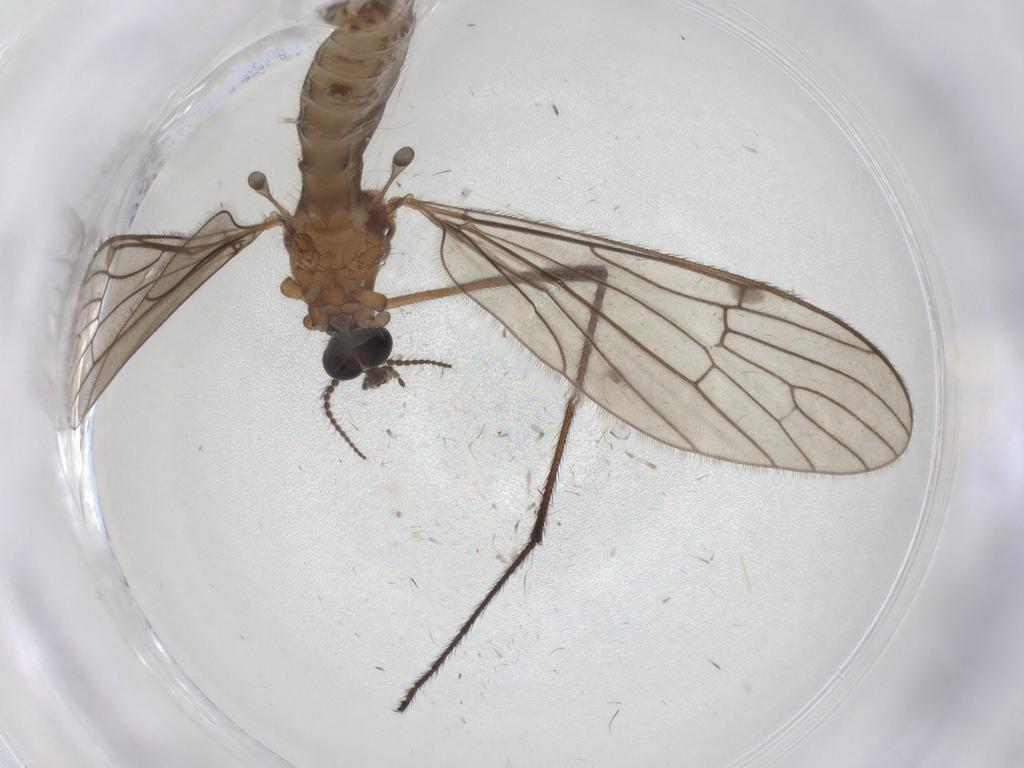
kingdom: Animalia
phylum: Arthropoda
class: Insecta
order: Diptera
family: Limoniidae
